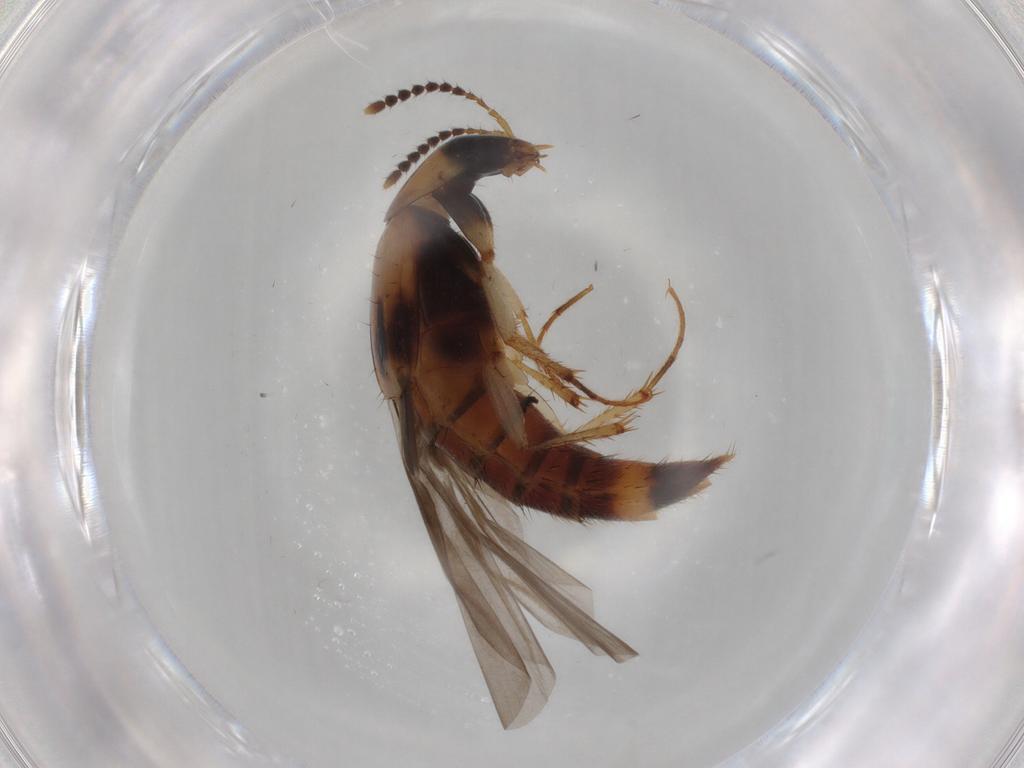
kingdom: Animalia
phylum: Arthropoda
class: Insecta
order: Coleoptera
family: Staphylinidae
